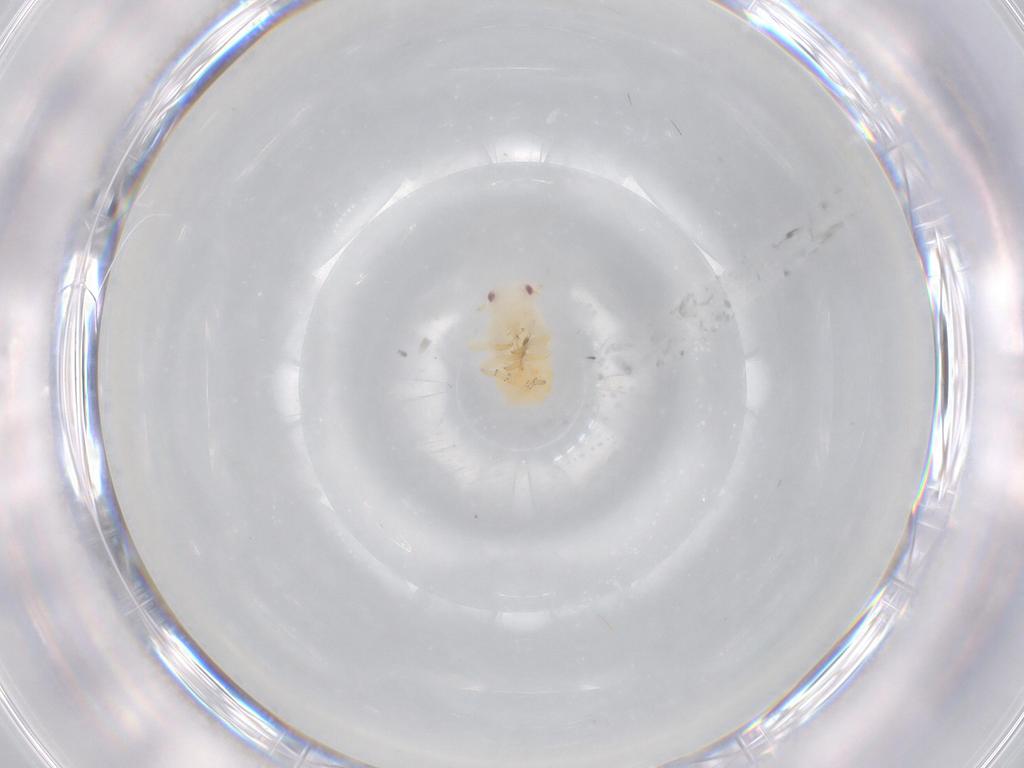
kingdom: Animalia
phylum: Arthropoda
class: Insecta
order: Hemiptera
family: Flatidae
